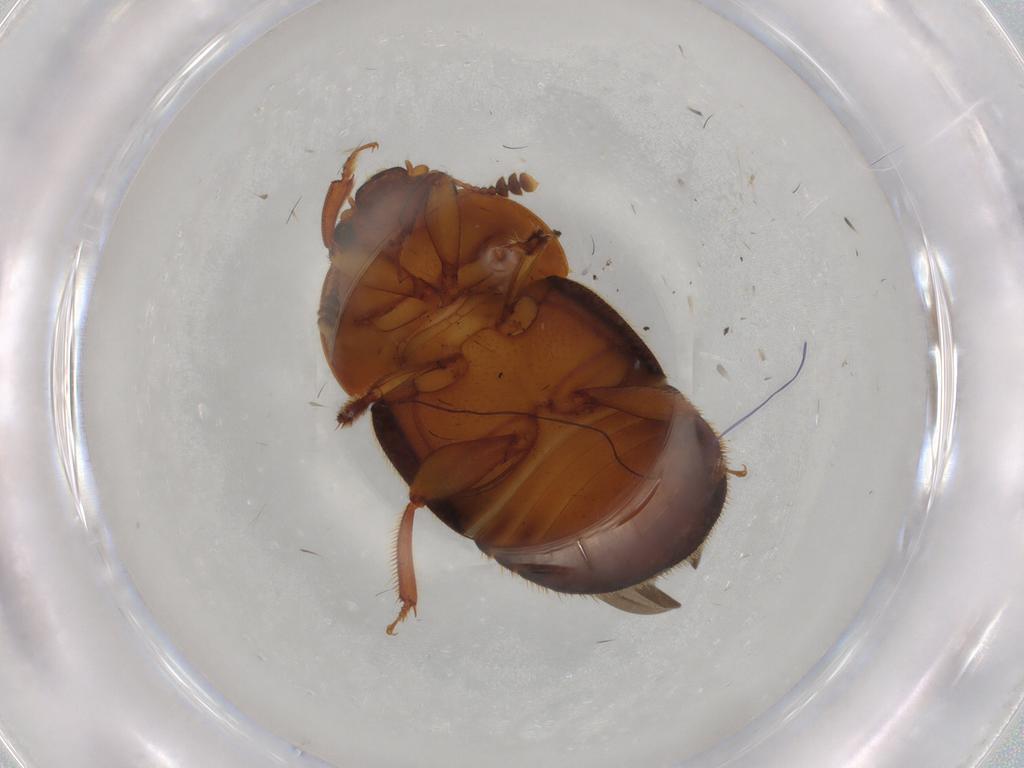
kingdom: Animalia
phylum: Arthropoda
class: Insecta
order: Coleoptera
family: Nitidulidae
